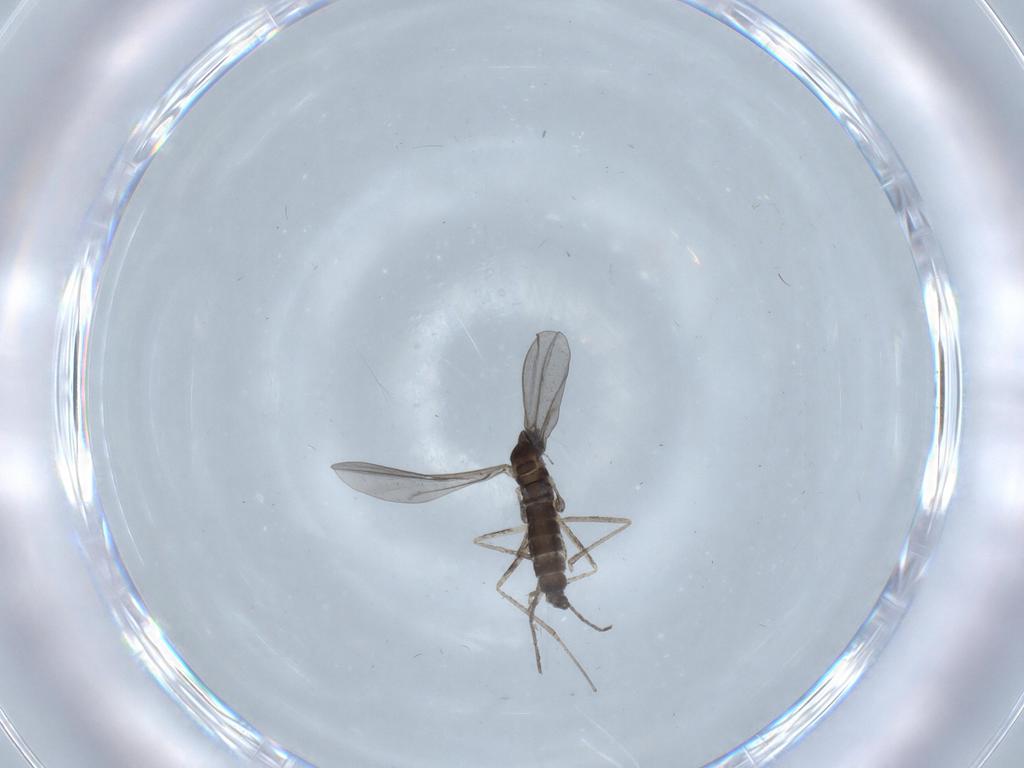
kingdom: Animalia
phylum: Arthropoda
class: Insecta
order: Diptera
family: Cecidomyiidae
